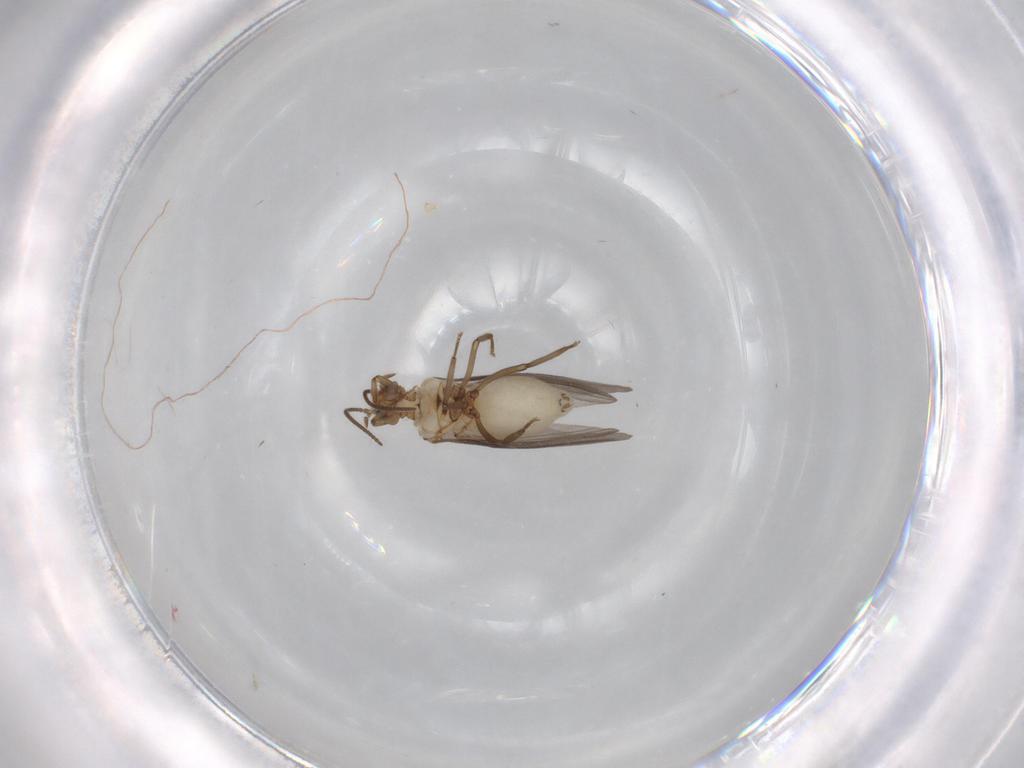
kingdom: Animalia
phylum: Arthropoda
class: Insecta
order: Neuroptera
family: Coniopterygidae
